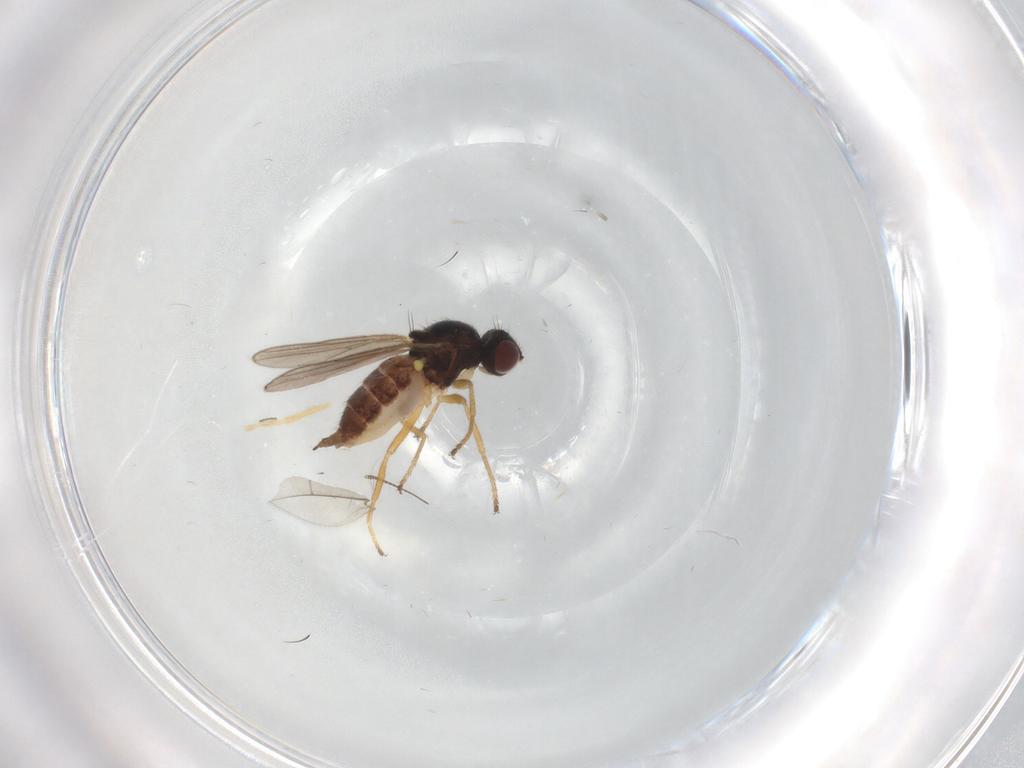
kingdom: Animalia
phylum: Arthropoda
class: Insecta
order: Diptera
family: Chloropidae
